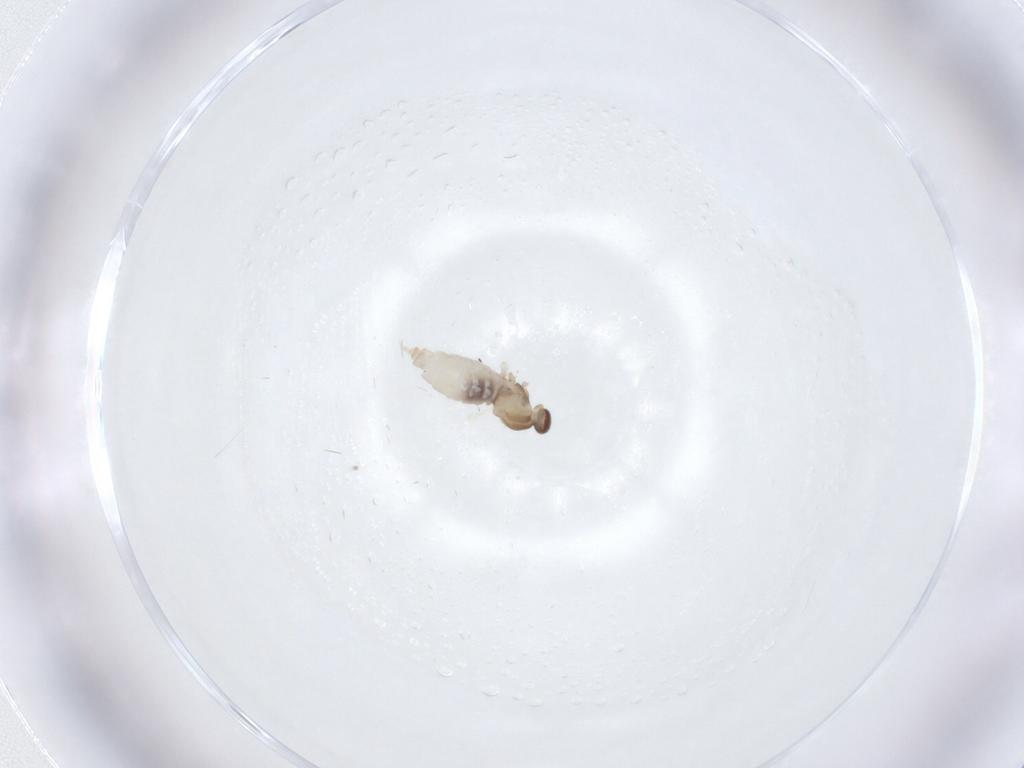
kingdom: Animalia
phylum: Arthropoda
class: Insecta
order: Diptera
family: Cecidomyiidae
